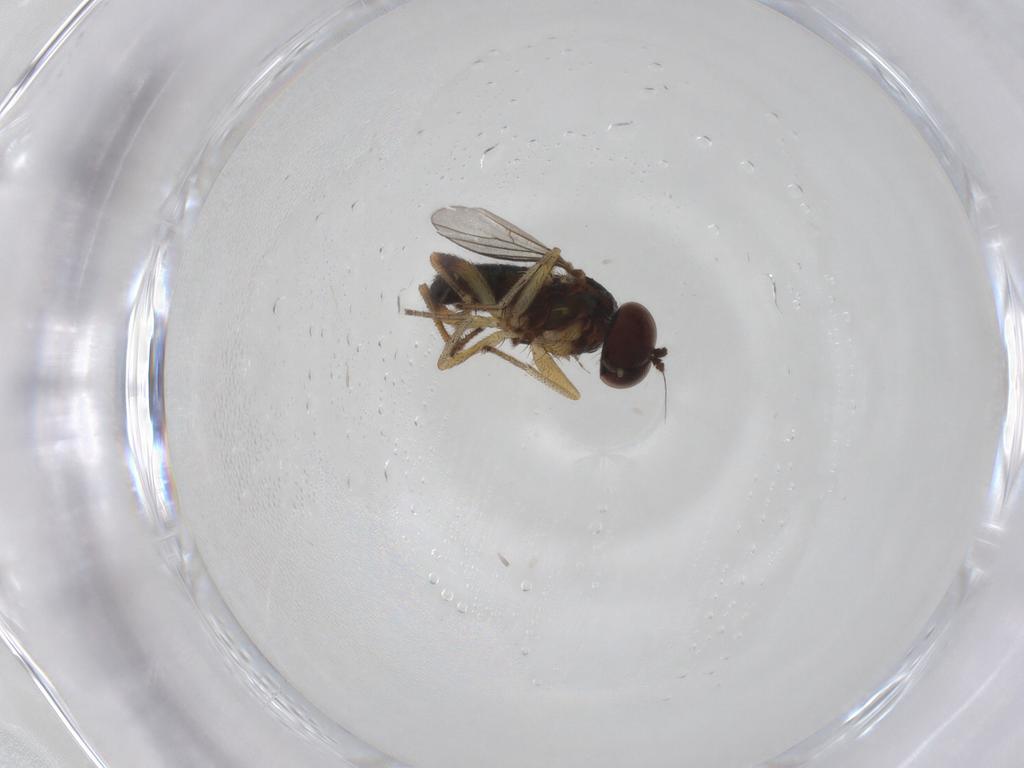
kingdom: Animalia
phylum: Arthropoda
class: Insecta
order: Diptera
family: Dolichopodidae
